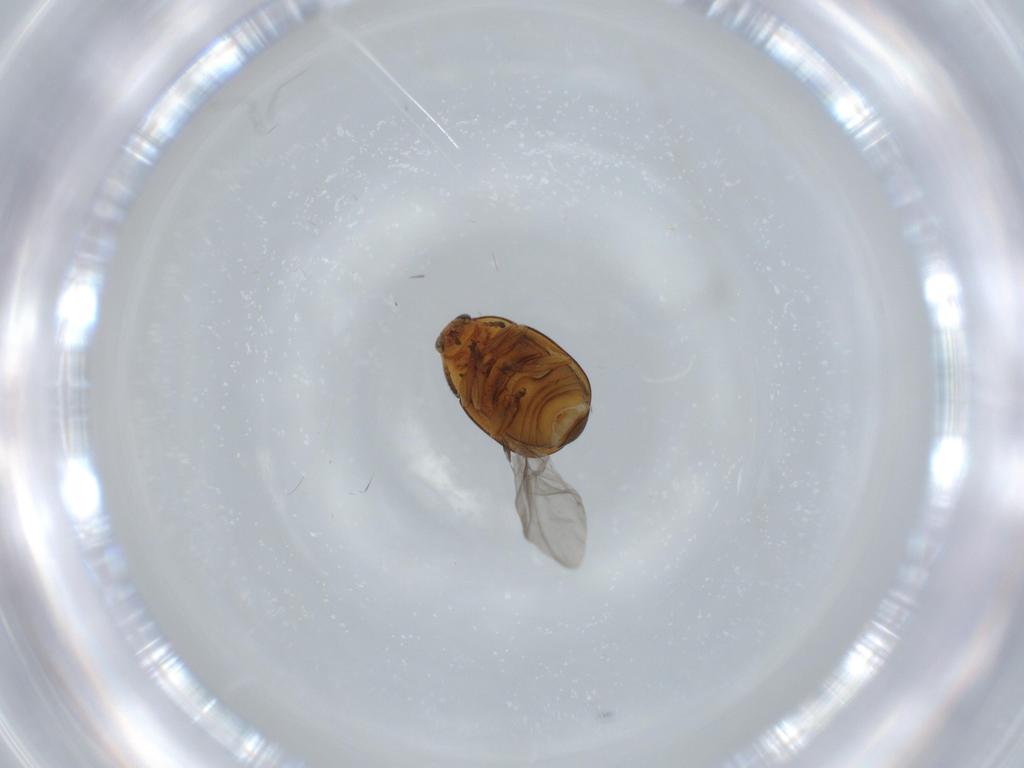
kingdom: Animalia
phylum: Arthropoda
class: Insecta
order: Coleoptera
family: Chrysomelidae
